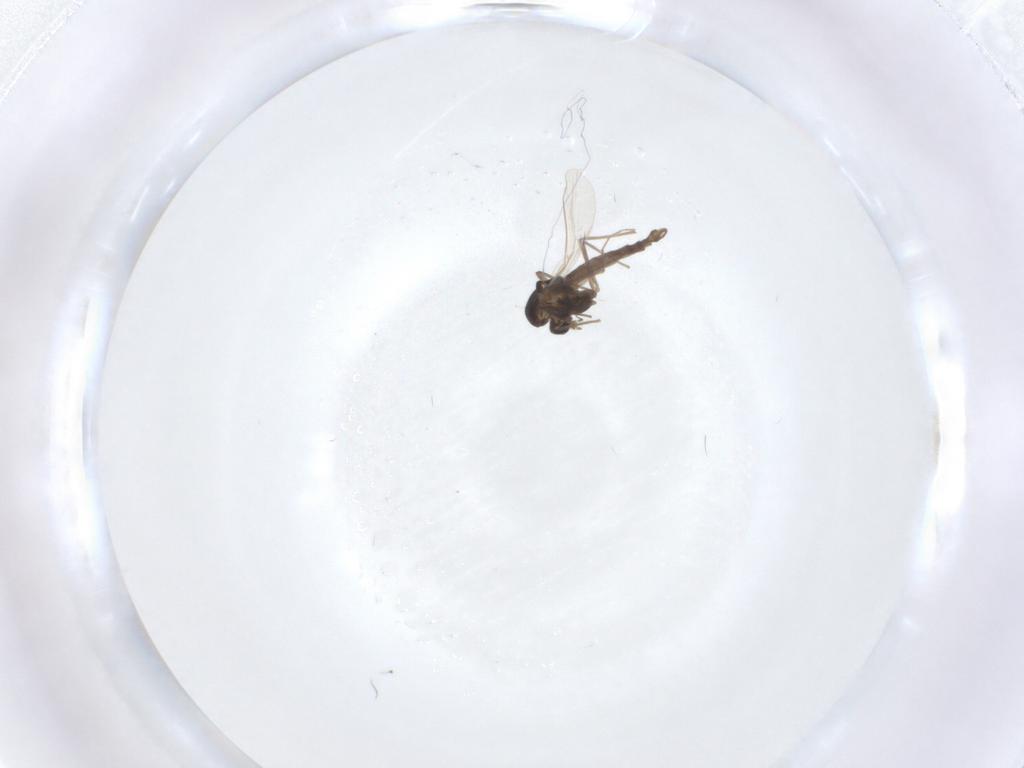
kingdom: Animalia
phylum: Arthropoda
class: Insecta
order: Diptera
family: Chironomidae
